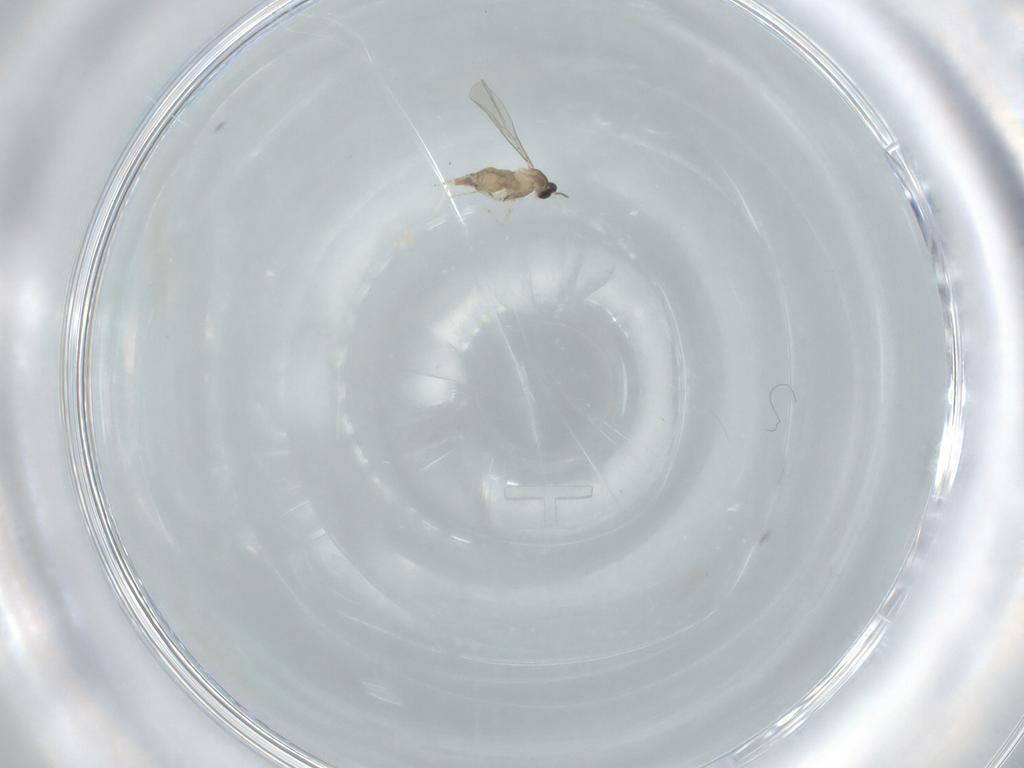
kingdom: Animalia
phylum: Arthropoda
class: Insecta
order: Diptera
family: Cecidomyiidae
